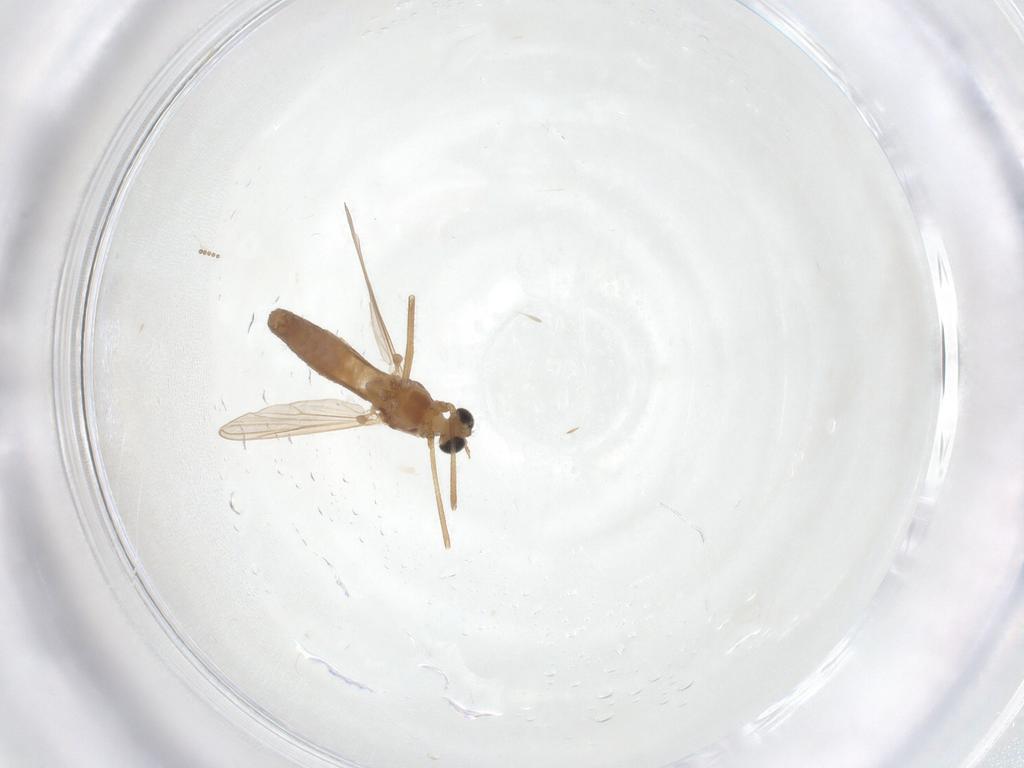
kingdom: Animalia
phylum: Arthropoda
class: Insecta
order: Diptera
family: Chironomidae
